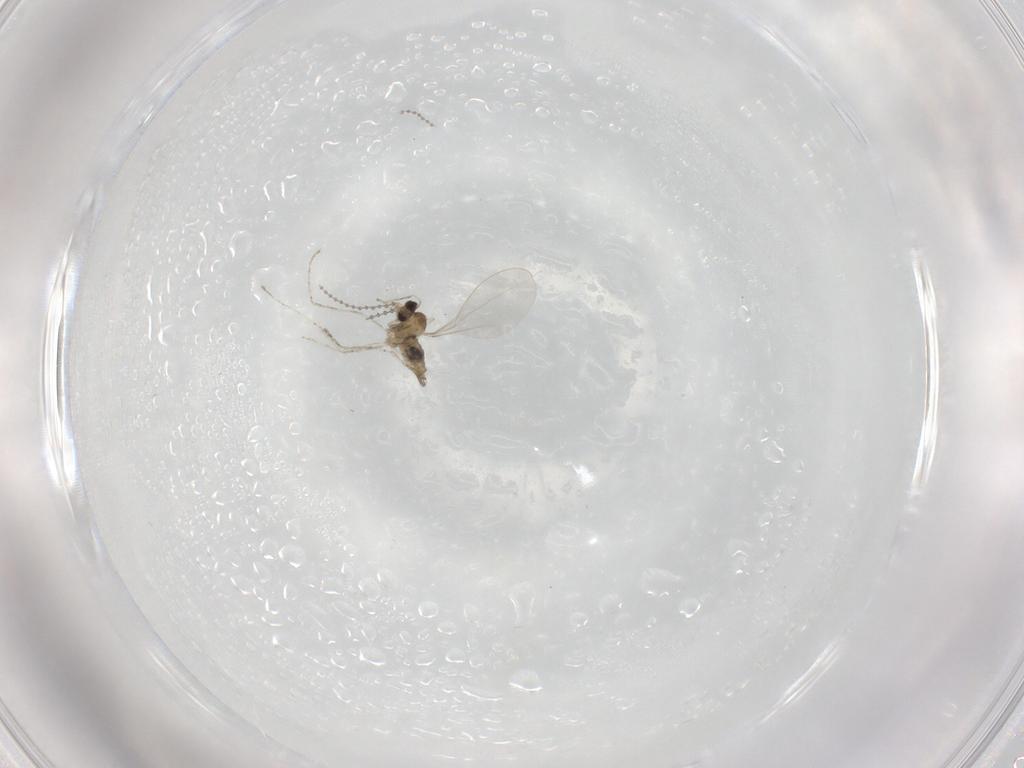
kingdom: Animalia
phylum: Arthropoda
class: Insecta
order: Diptera
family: Cecidomyiidae
